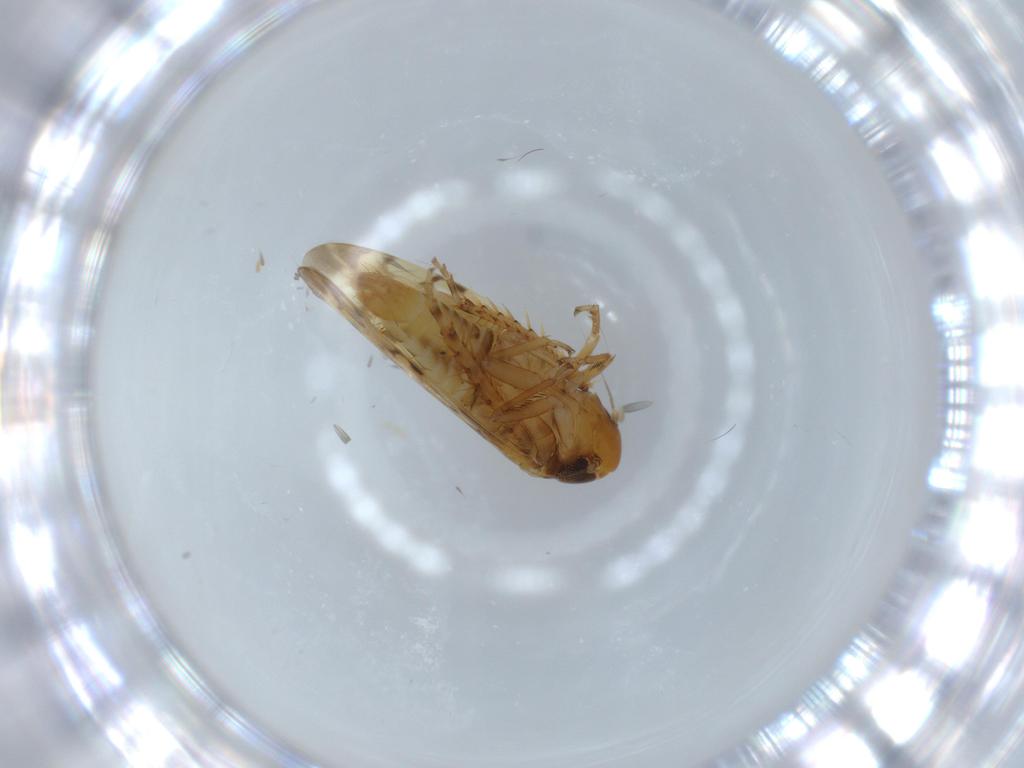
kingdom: Animalia
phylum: Arthropoda
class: Insecta
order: Hemiptera
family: Cicadellidae
